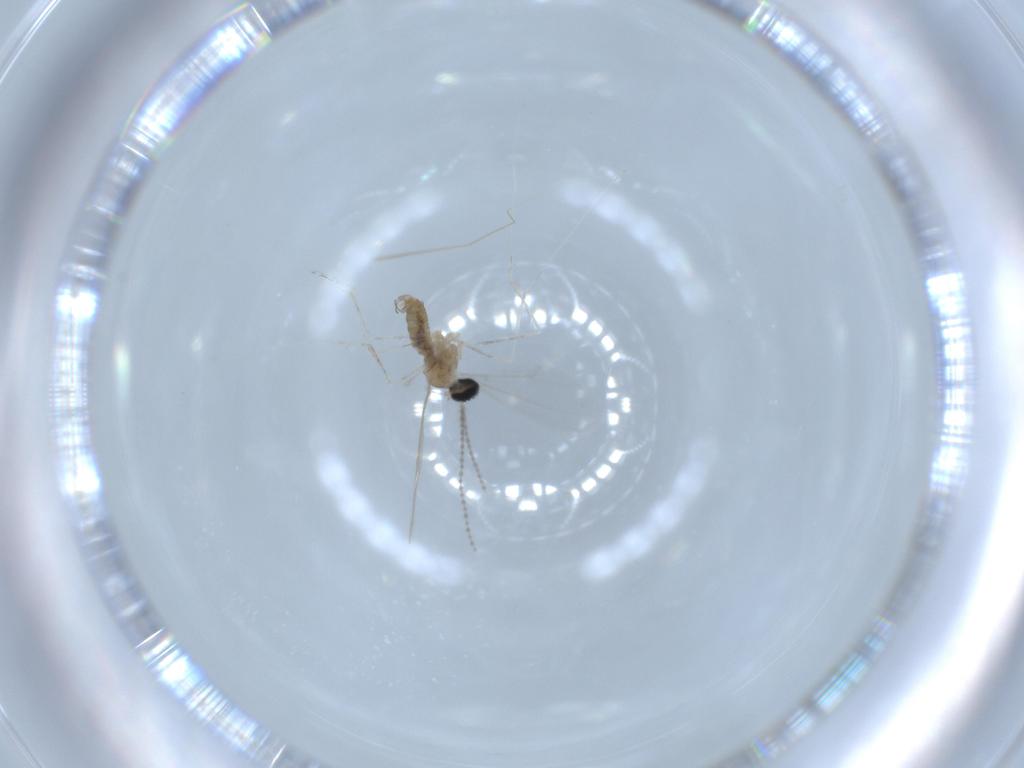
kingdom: Animalia
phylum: Arthropoda
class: Insecta
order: Diptera
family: Cecidomyiidae
